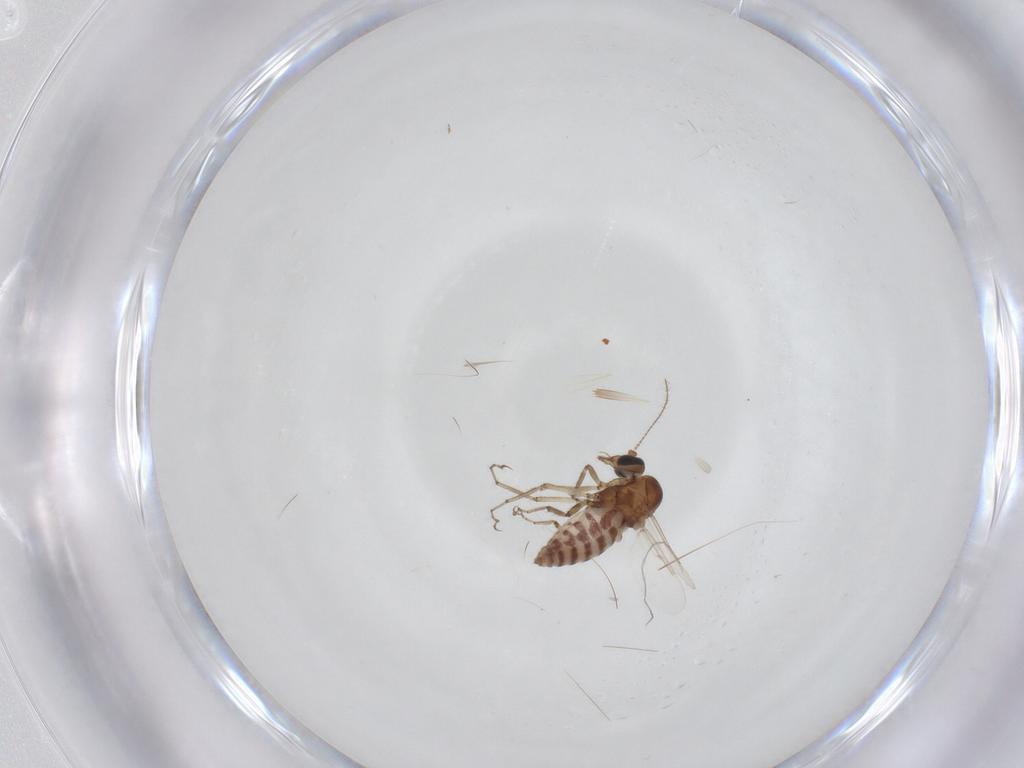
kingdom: Animalia
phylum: Arthropoda
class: Insecta
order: Diptera
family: Ceratopogonidae
